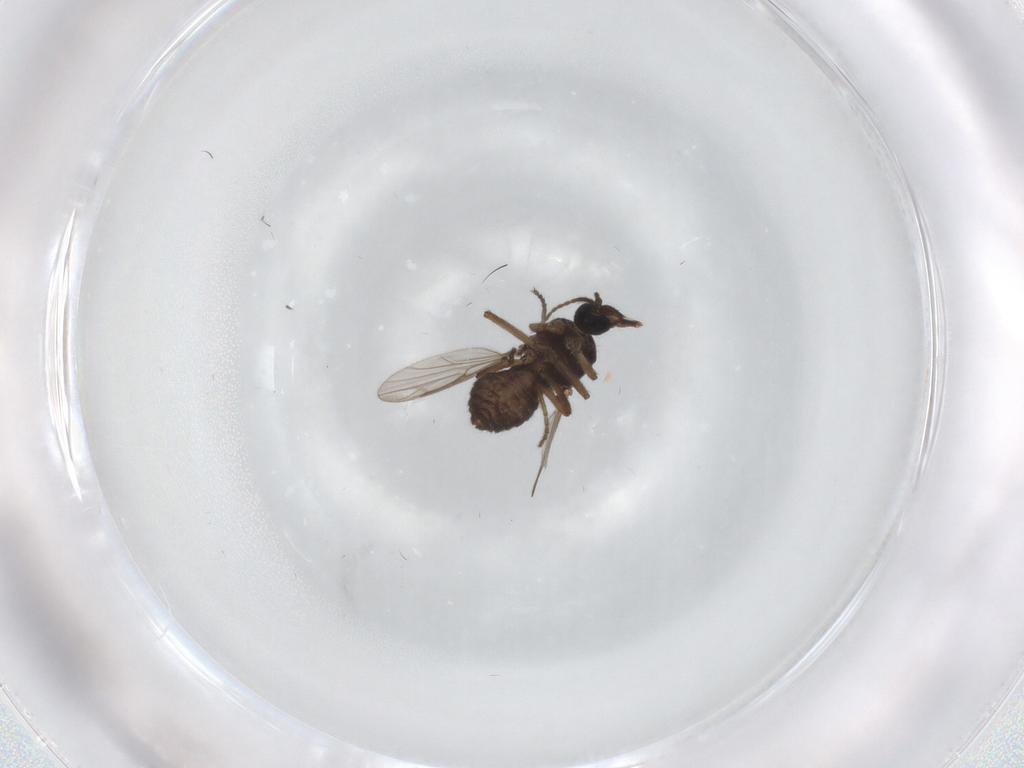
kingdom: Animalia
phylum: Arthropoda
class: Insecta
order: Diptera
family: Ceratopogonidae
